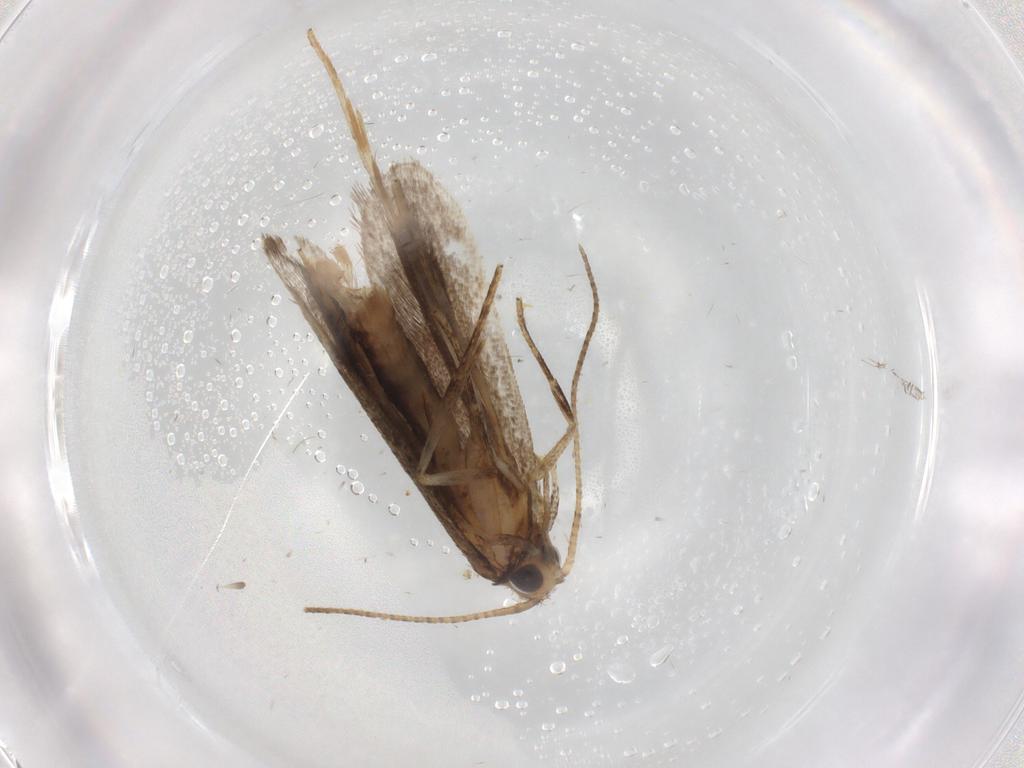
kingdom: Animalia
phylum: Arthropoda
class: Insecta
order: Lepidoptera
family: Gelechiidae
